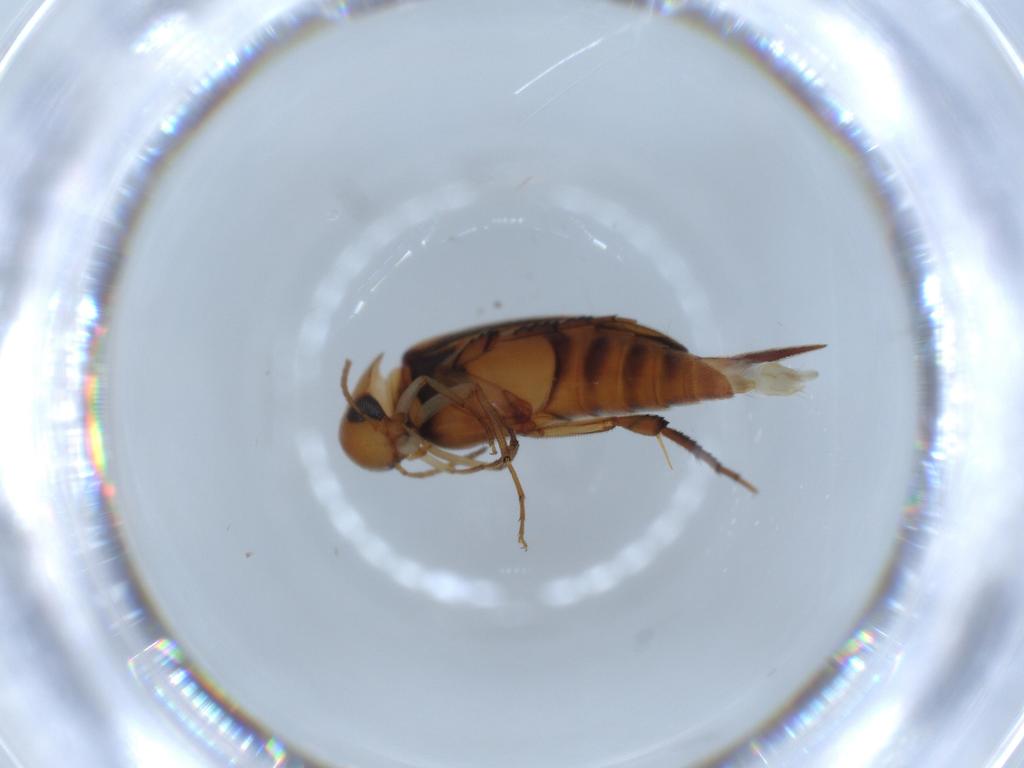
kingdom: Animalia
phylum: Arthropoda
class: Insecta
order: Coleoptera
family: Mordellidae
